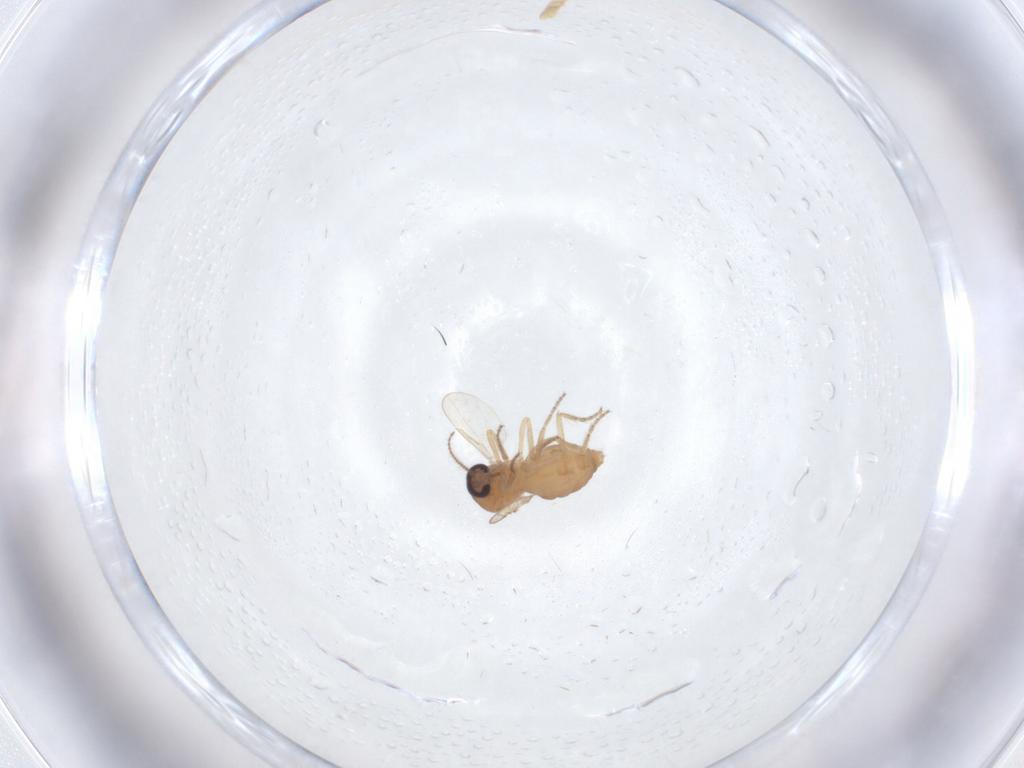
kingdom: Animalia
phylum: Arthropoda
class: Insecta
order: Diptera
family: Ceratopogonidae
